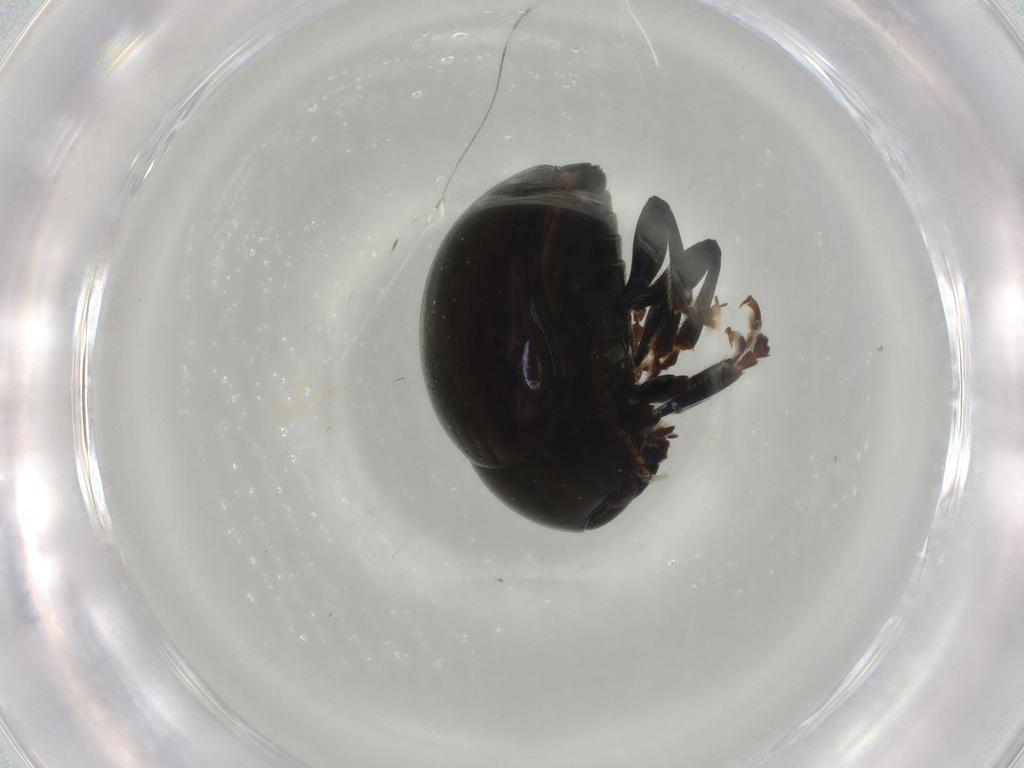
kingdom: Animalia
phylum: Arthropoda
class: Insecta
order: Coleoptera
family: Chrysomelidae
